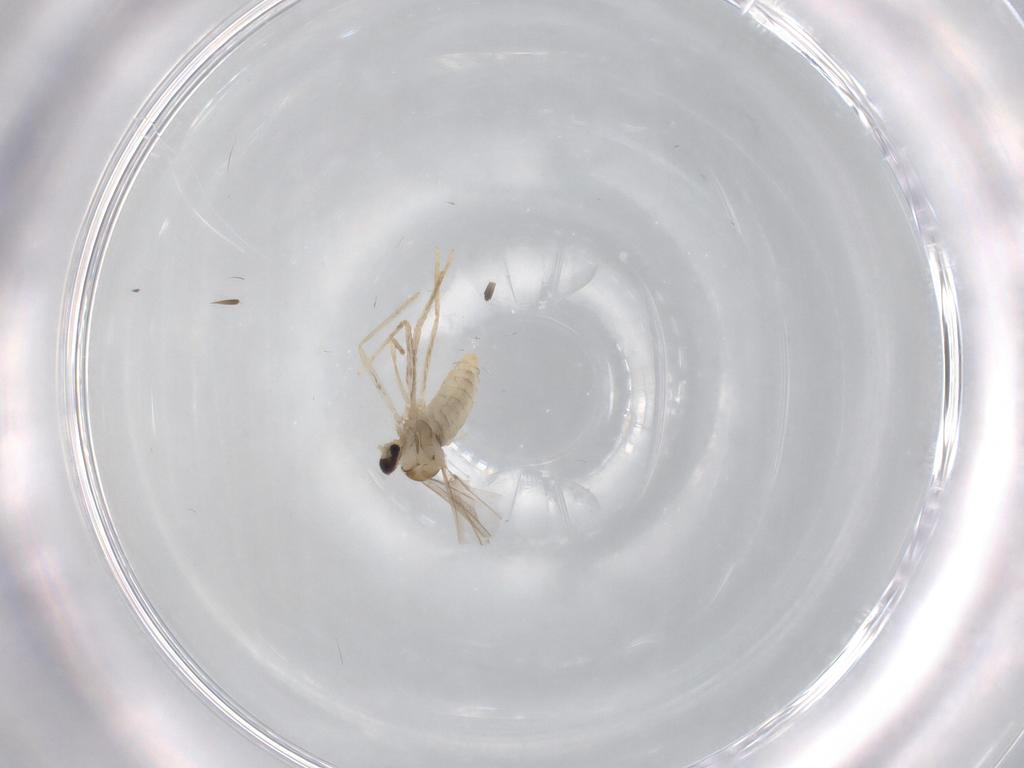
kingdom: Animalia
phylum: Arthropoda
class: Insecta
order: Diptera
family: Cecidomyiidae
